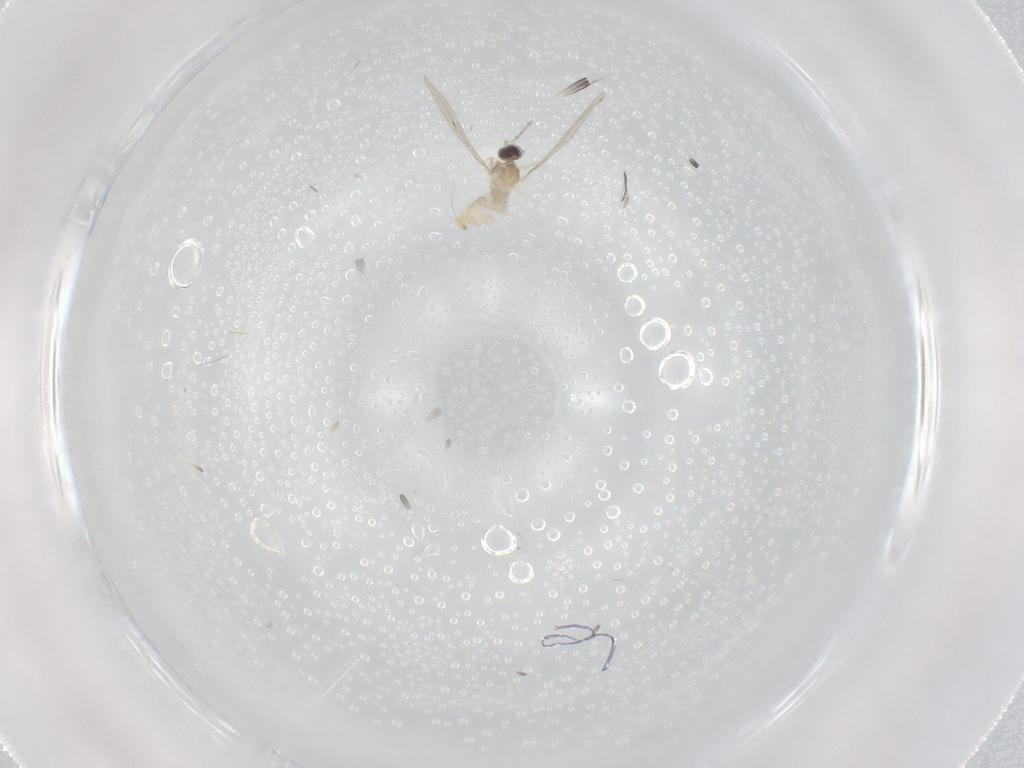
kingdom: Animalia
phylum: Arthropoda
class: Insecta
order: Diptera
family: Cecidomyiidae
